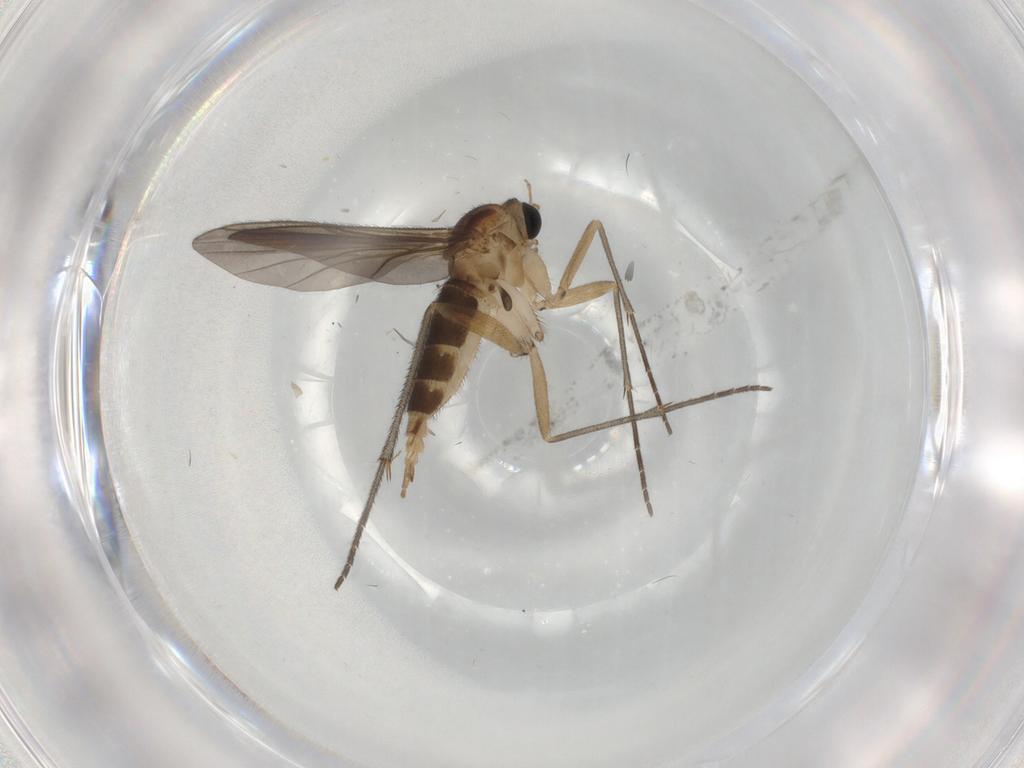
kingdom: Animalia
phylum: Arthropoda
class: Insecta
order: Diptera
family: Sciaridae
